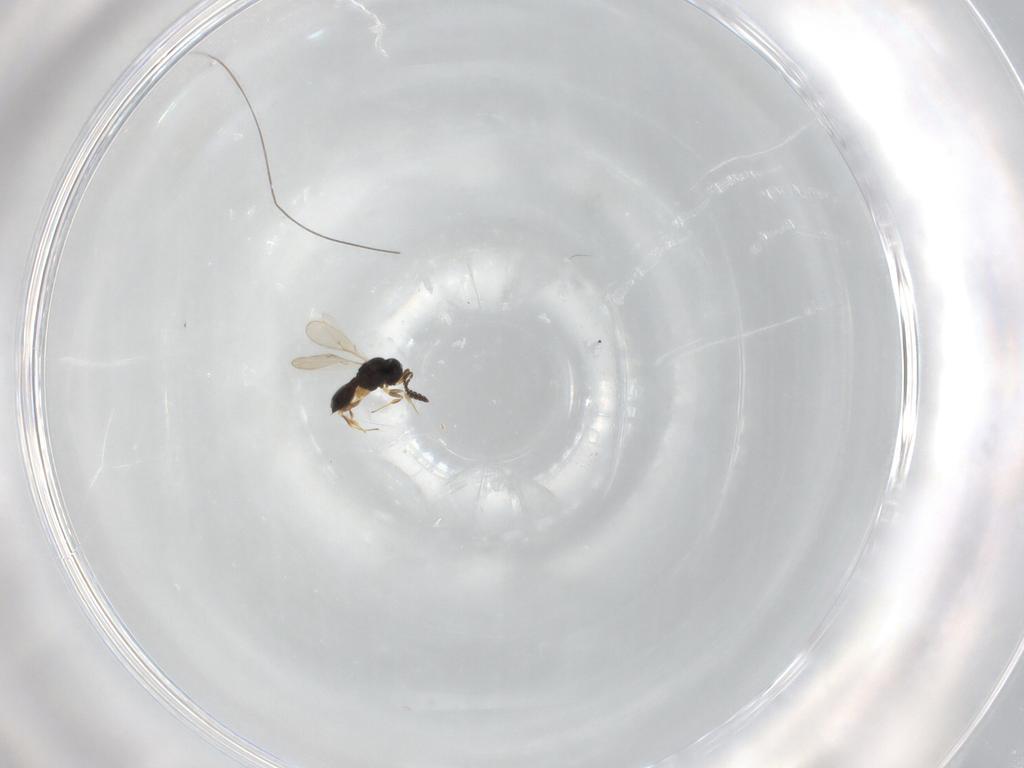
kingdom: Animalia
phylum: Arthropoda
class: Insecta
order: Hymenoptera
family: Scelionidae
